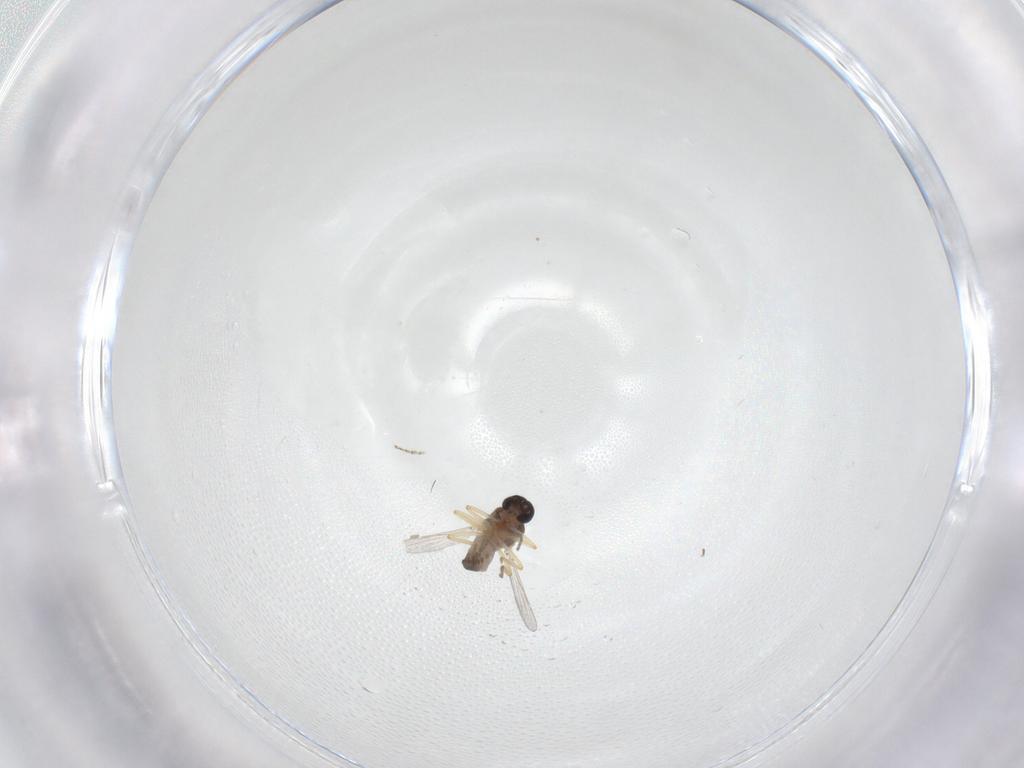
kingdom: Animalia
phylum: Arthropoda
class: Insecta
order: Diptera
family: Ceratopogonidae
